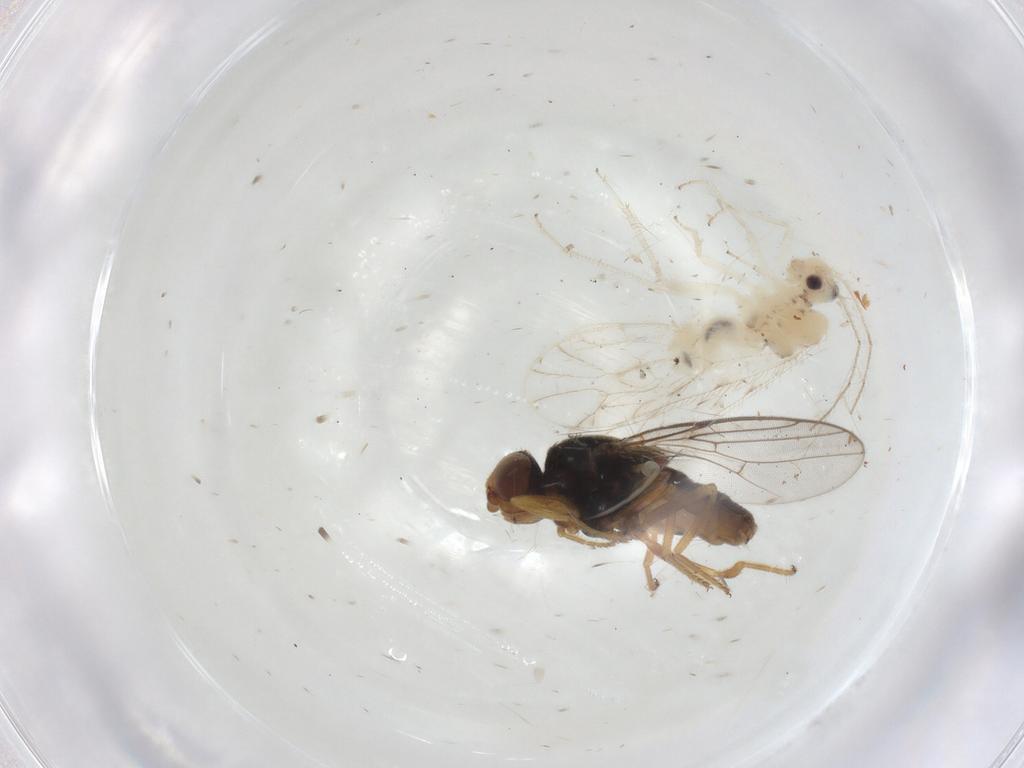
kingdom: Animalia
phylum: Arthropoda
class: Insecta
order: Diptera
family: Chloropidae
